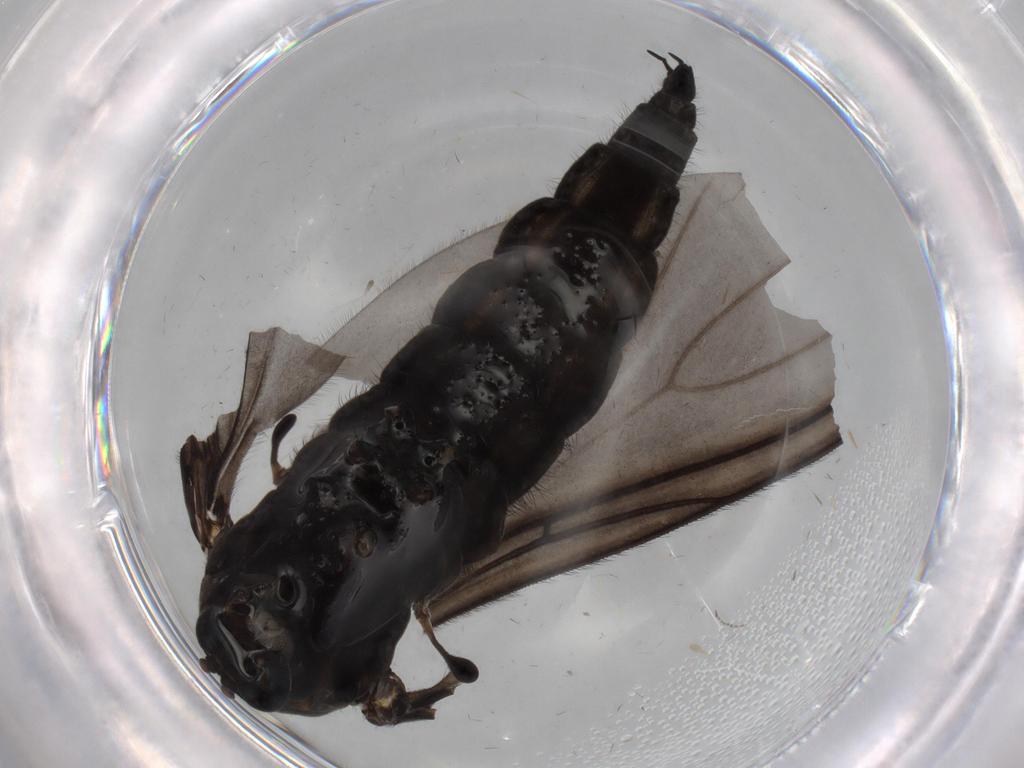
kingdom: Animalia
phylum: Arthropoda
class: Insecta
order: Diptera
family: Sciaridae
